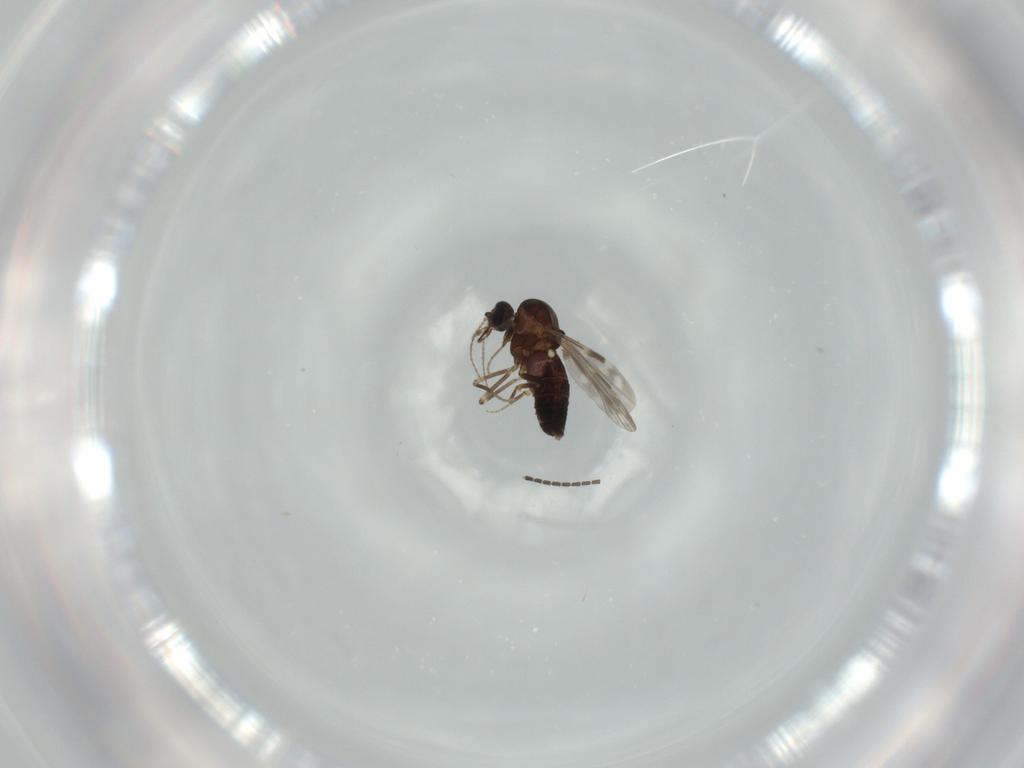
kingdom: Animalia
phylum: Arthropoda
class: Insecta
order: Diptera
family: Ceratopogonidae
